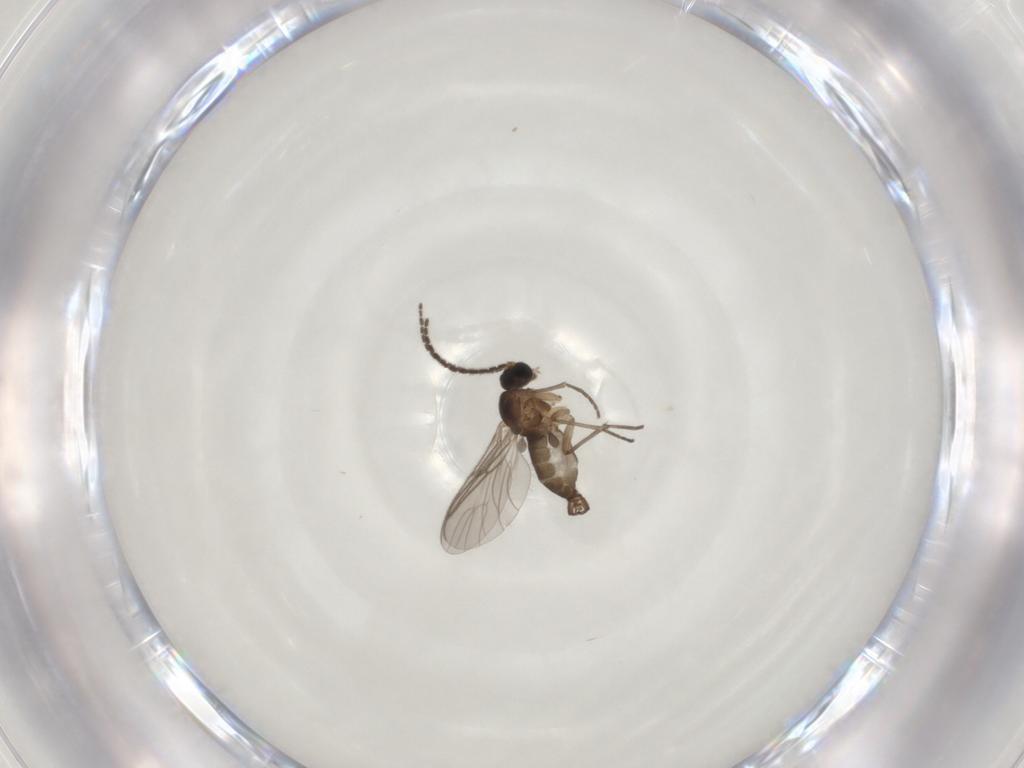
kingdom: Animalia
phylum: Arthropoda
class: Insecta
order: Diptera
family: Sciaridae
